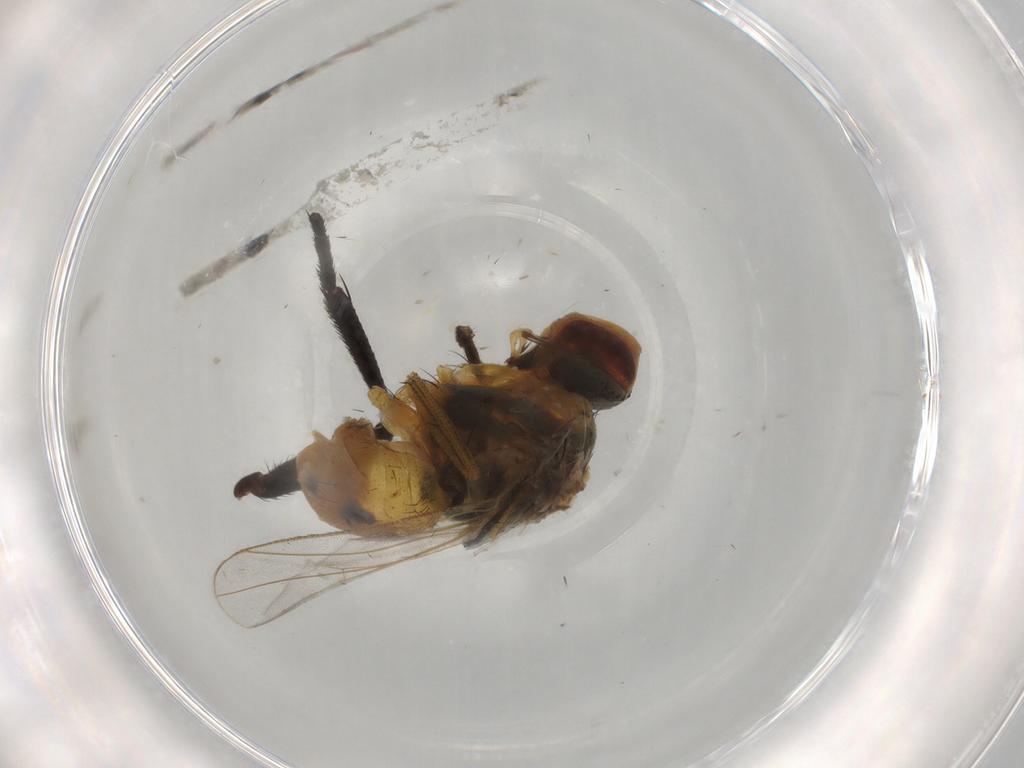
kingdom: Animalia
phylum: Arthropoda
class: Insecta
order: Diptera
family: Muscidae
